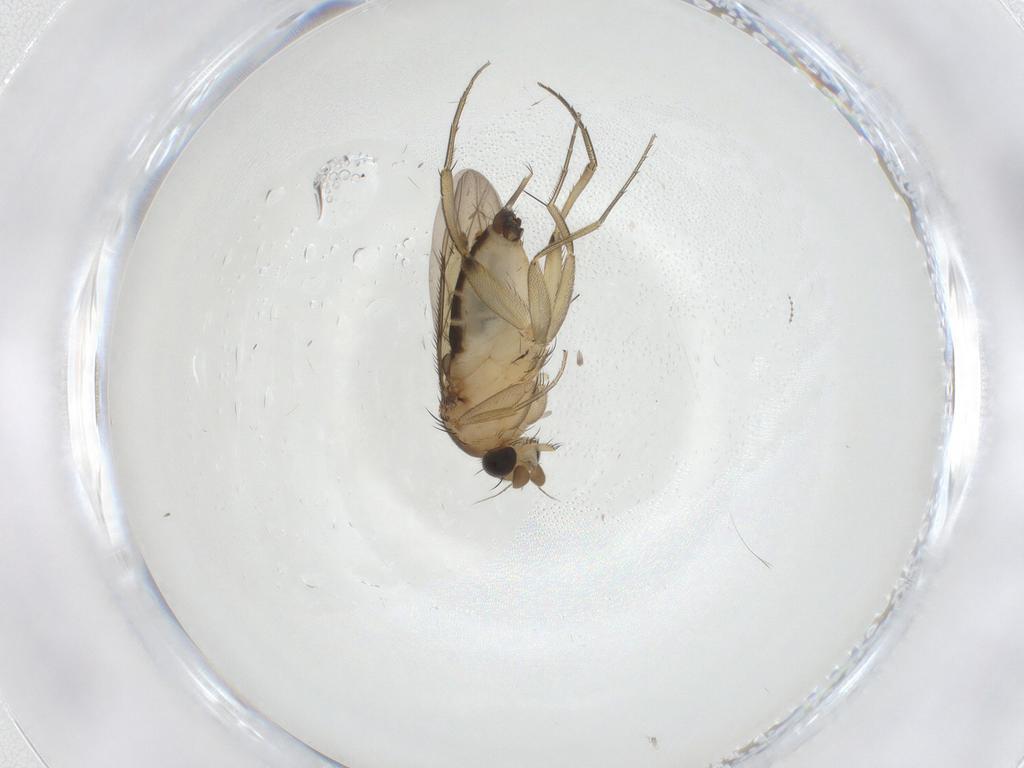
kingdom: Animalia
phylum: Arthropoda
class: Insecta
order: Diptera
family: Phoridae
